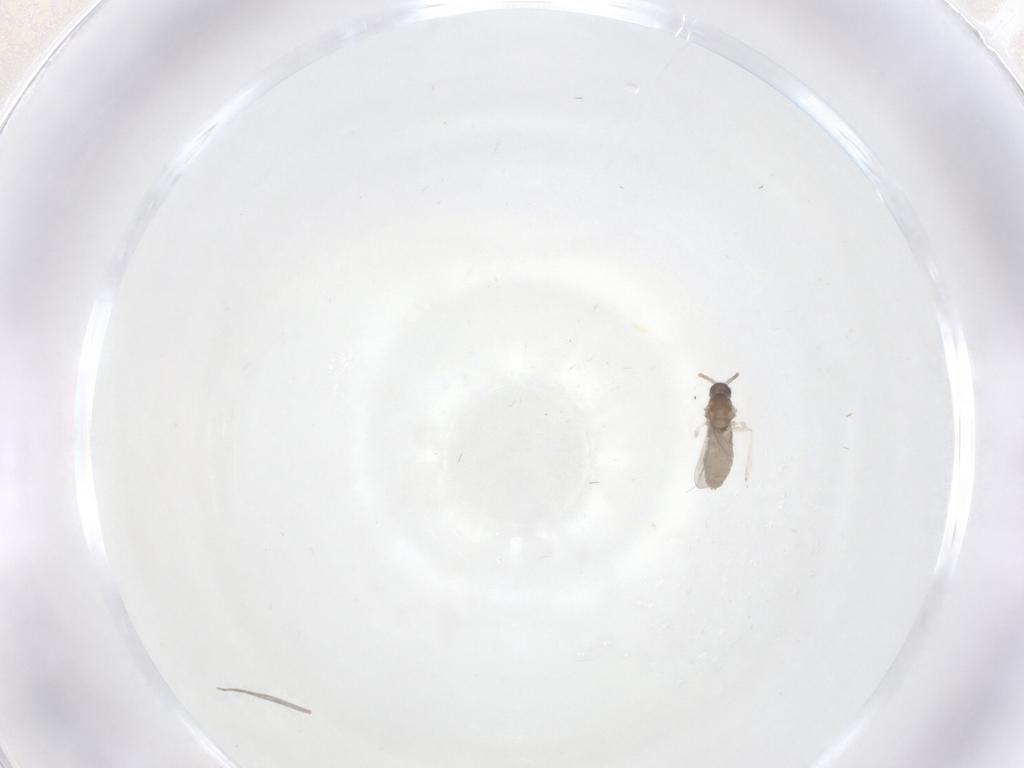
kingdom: Animalia
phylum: Arthropoda
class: Insecta
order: Diptera
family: Cecidomyiidae
